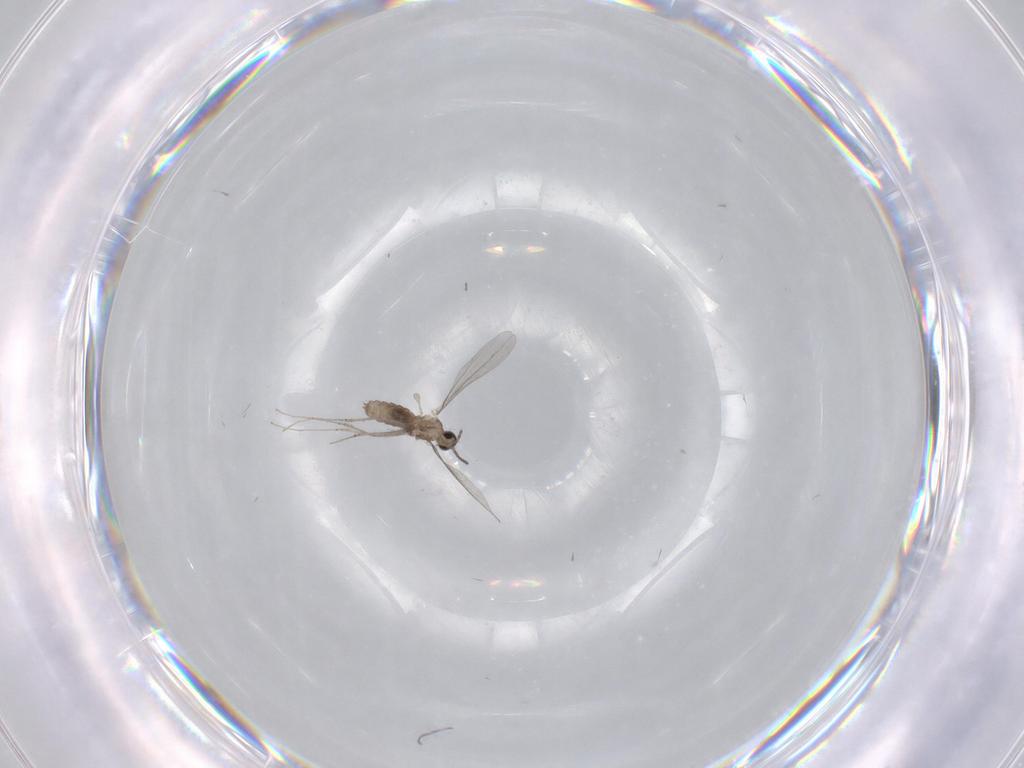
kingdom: Animalia
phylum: Arthropoda
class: Insecta
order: Diptera
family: Cecidomyiidae
